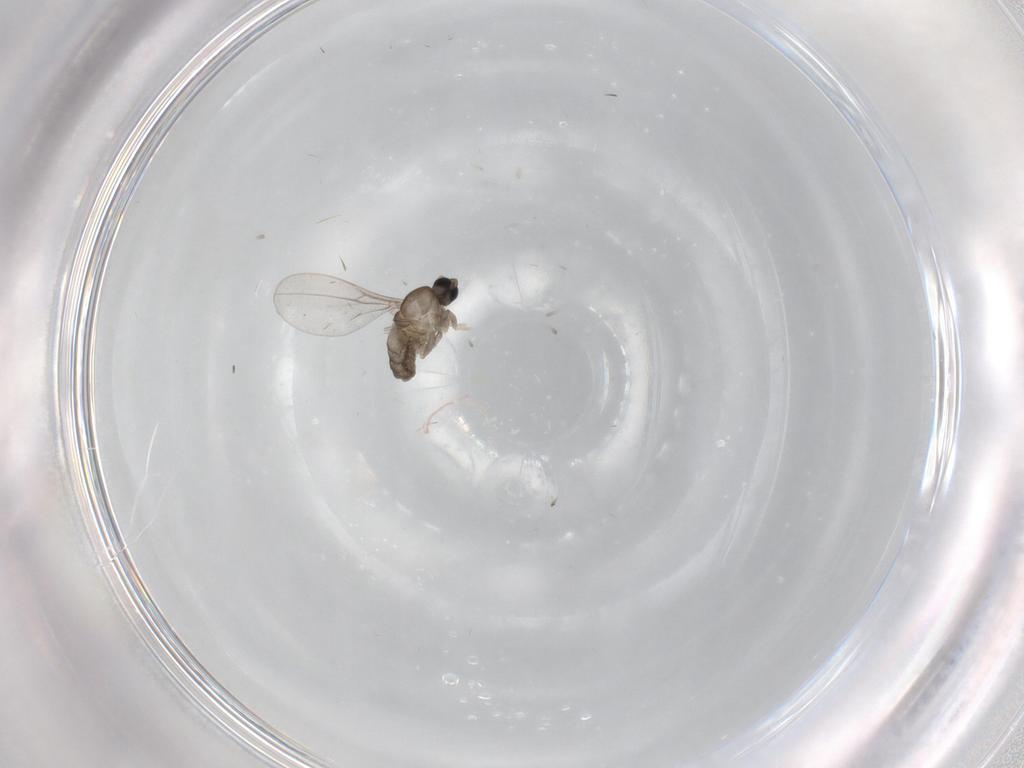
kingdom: Animalia
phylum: Arthropoda
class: Insecta
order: Diptera
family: Cecidomyiidae
